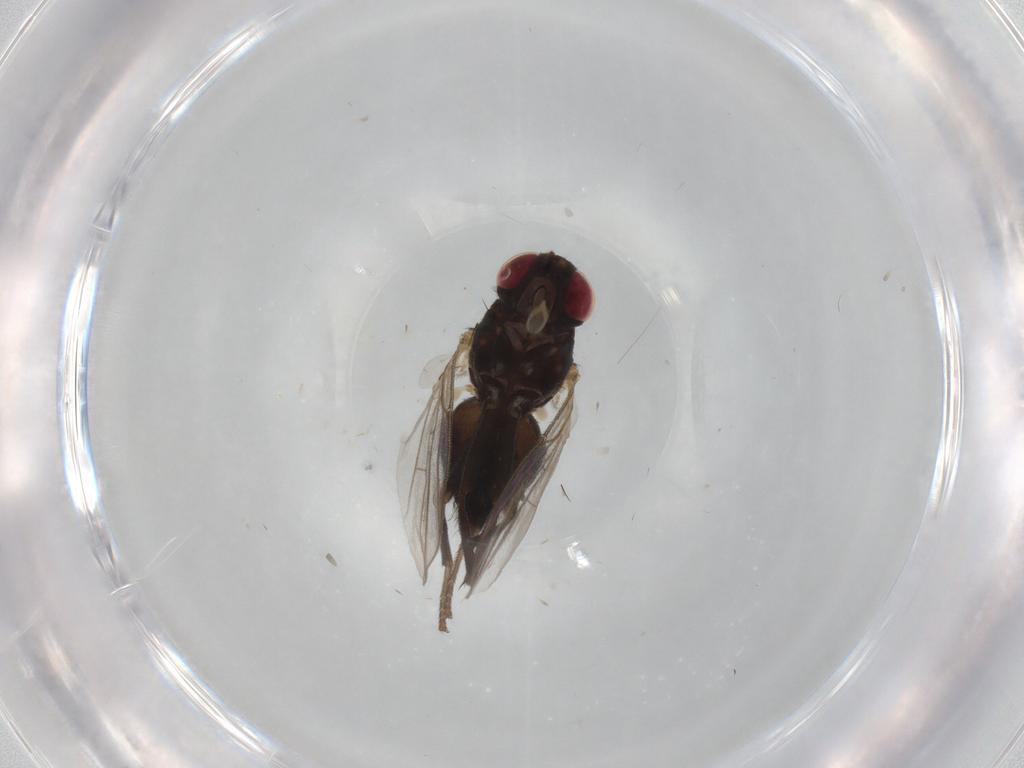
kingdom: Animalia
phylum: Arthropoda
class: Insecta
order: Diptera
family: Agromyzidae
